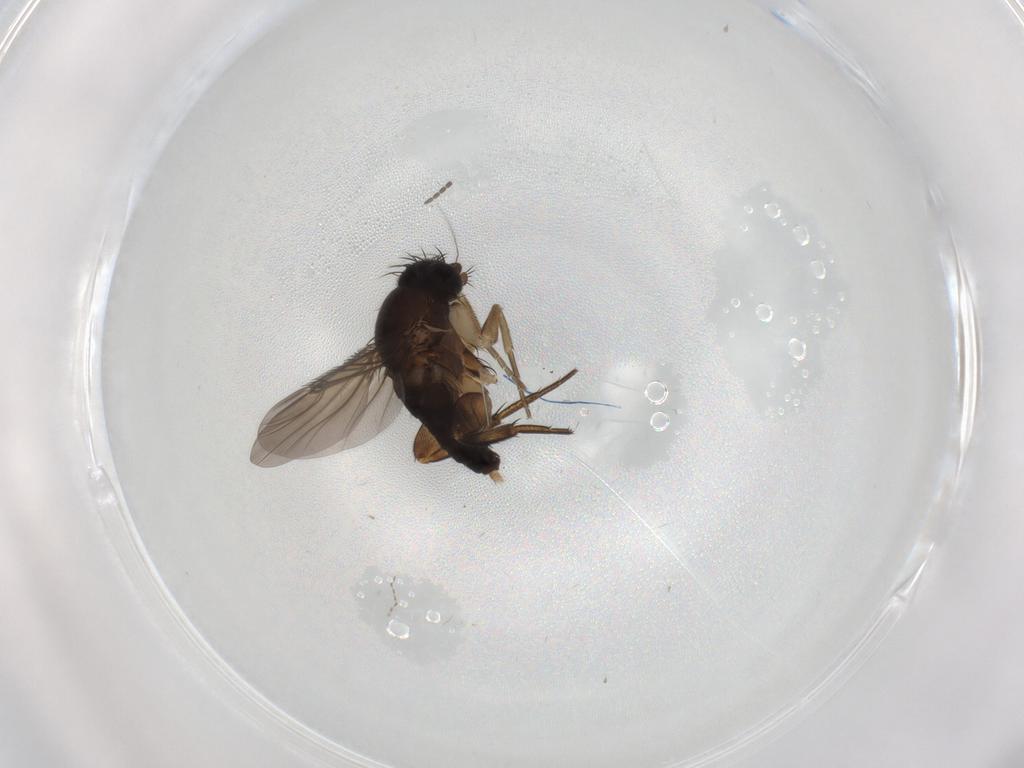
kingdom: Animalia
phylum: Arthropoda
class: Insecta
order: Diptera
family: Phoridae
